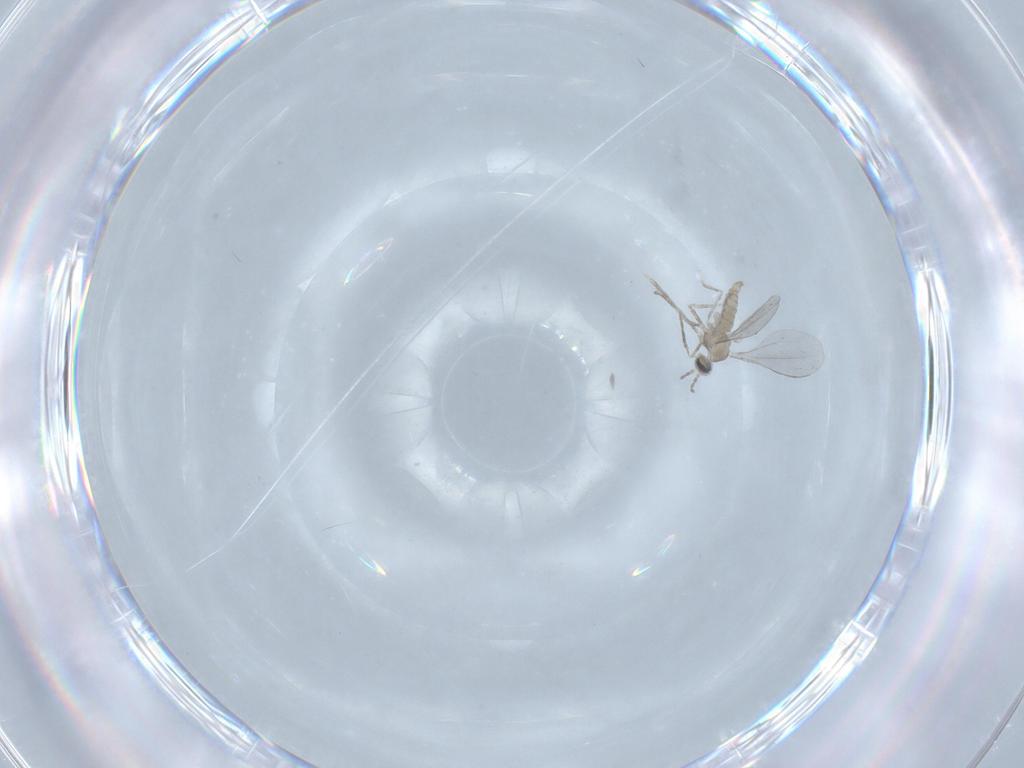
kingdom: Animalia
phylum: Arthropoda
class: Insecta
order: Diptera
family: Cecidomyiidae
